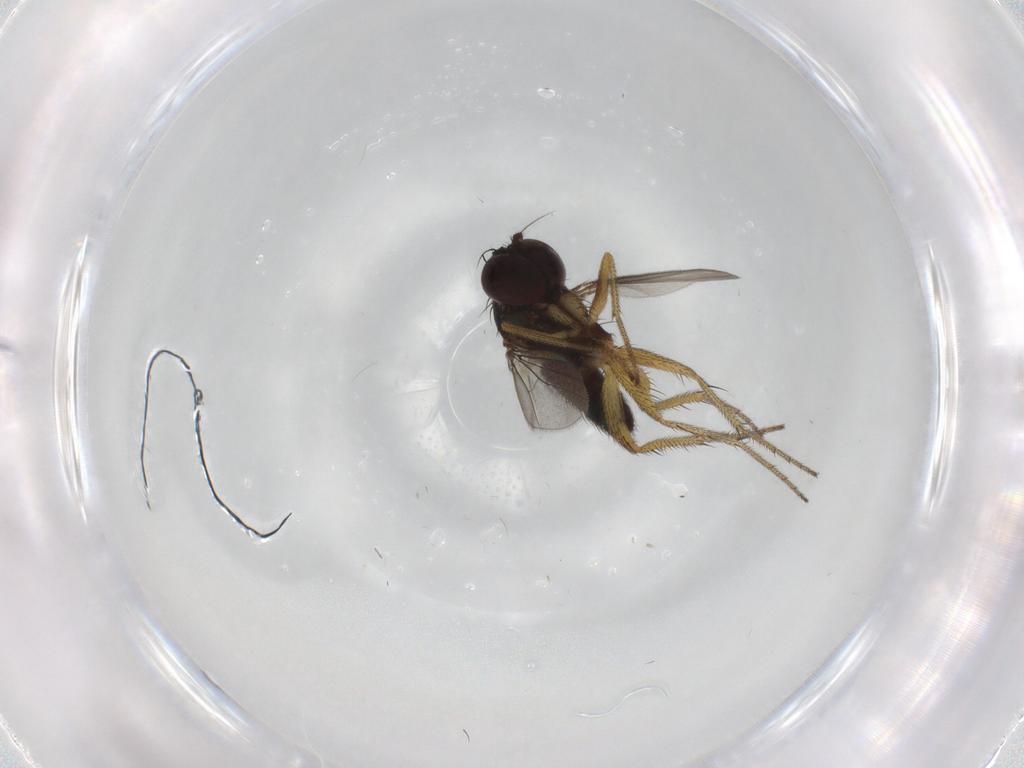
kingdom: Animalia
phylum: Arthropoda
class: Insecta
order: Diptera
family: Dolichopodidae
